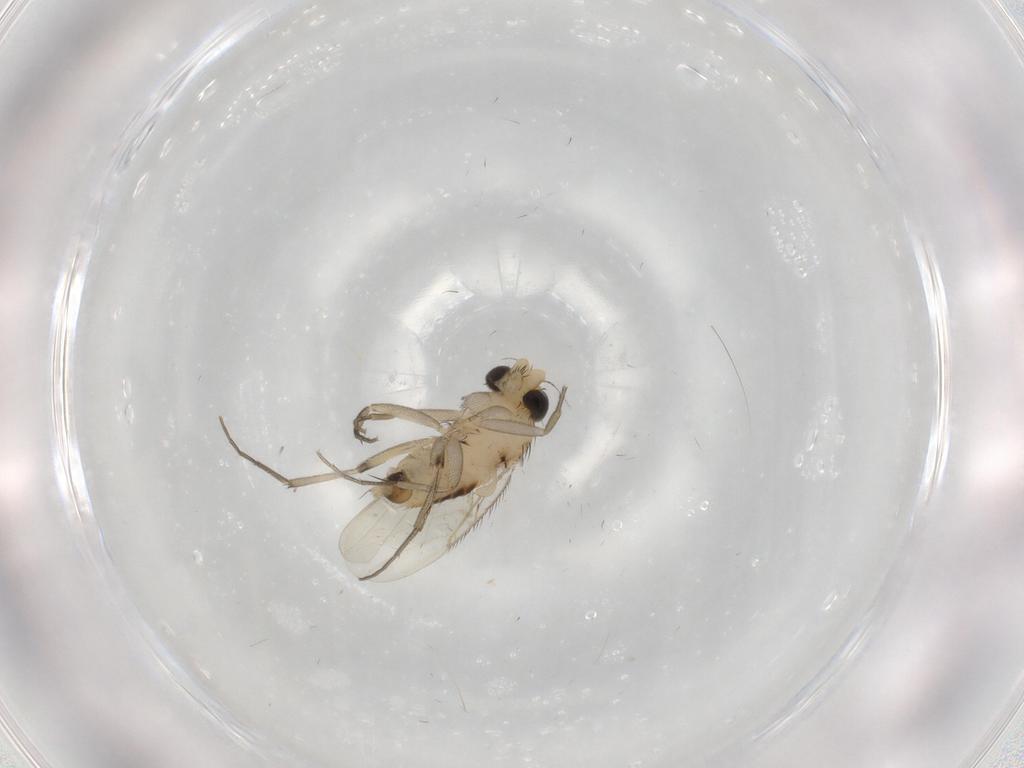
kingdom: Animalia
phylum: Arthropoda
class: Insecta
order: Diptera
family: Phoridae
